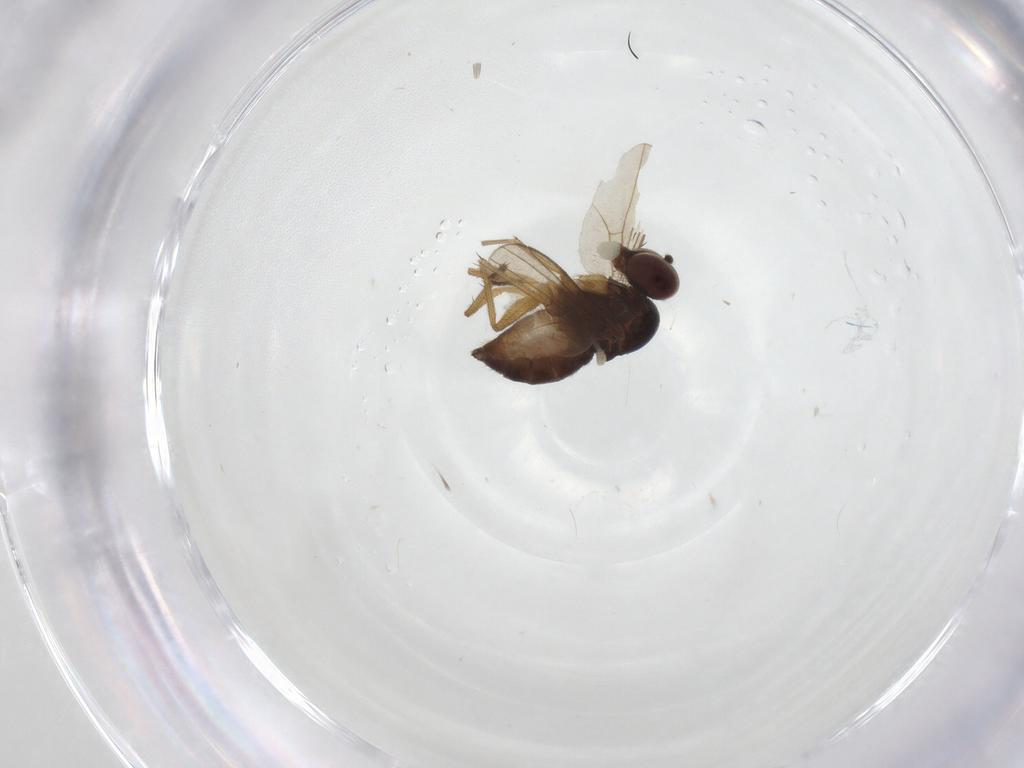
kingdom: Animalia
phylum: Arthropoda
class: Insecta
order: Diptera
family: Dolichopodidae
